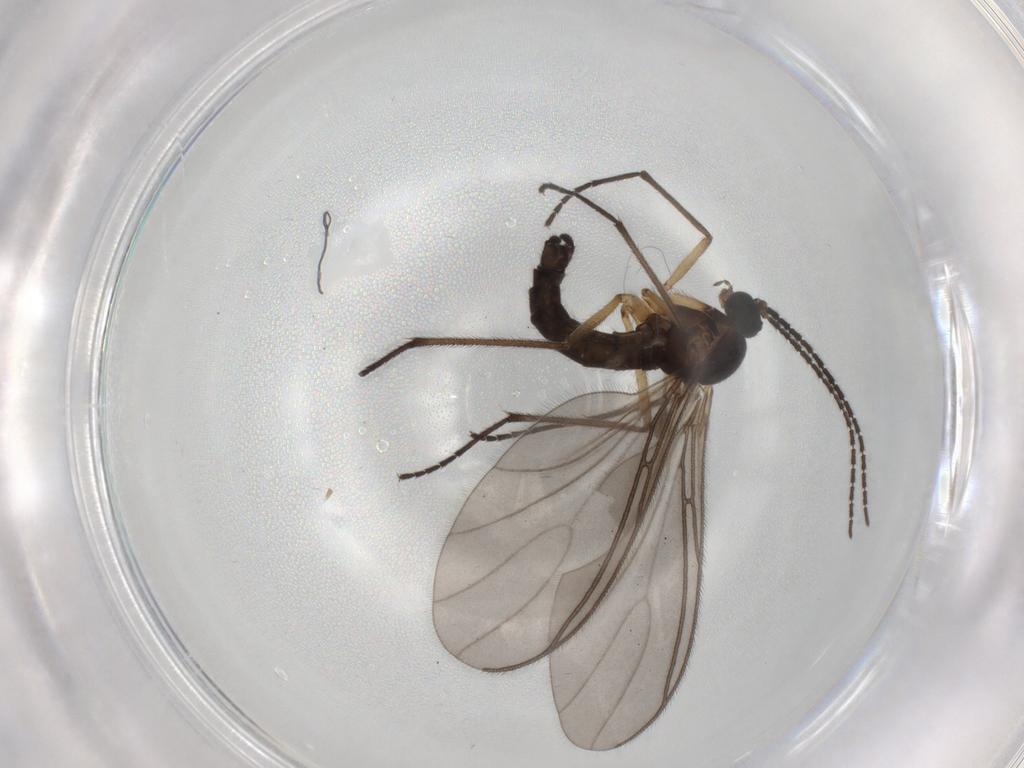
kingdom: Animalia
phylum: Arthropoda
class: Insecta
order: Diptera
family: Sciaridae
